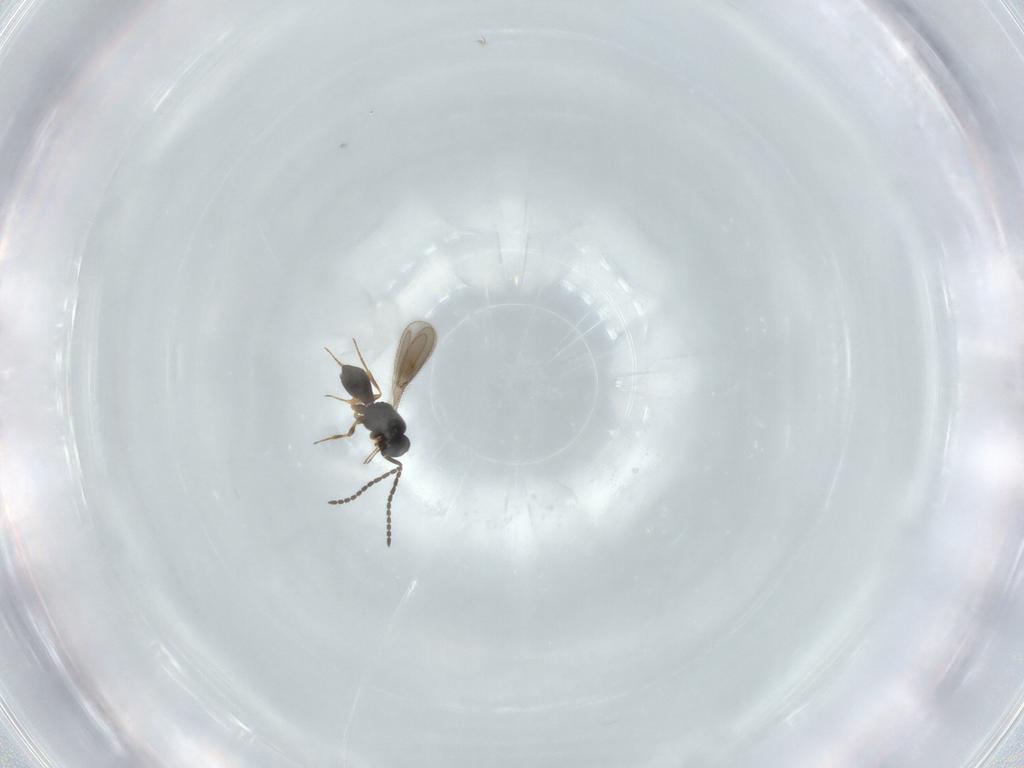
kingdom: Animalia
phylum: Arthropoda
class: Insecta
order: Hymenoptera
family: Scelionidae
